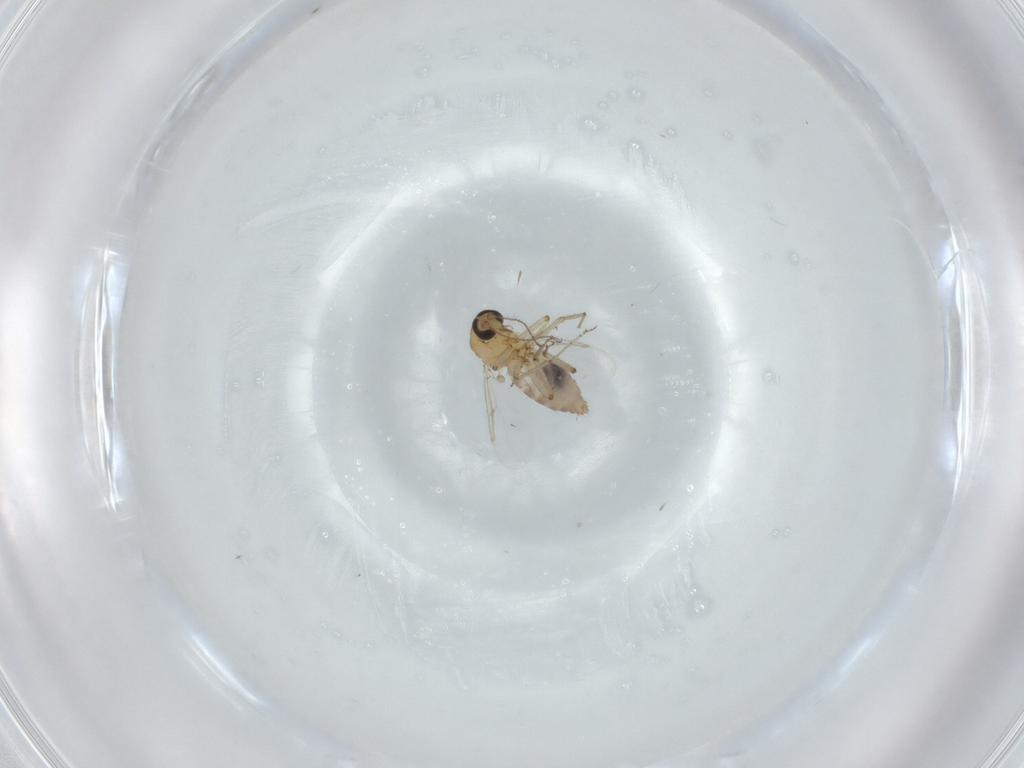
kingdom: Animalia
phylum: Arthropoda
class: Insecta
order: Diptera
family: Ceratopogonidae
